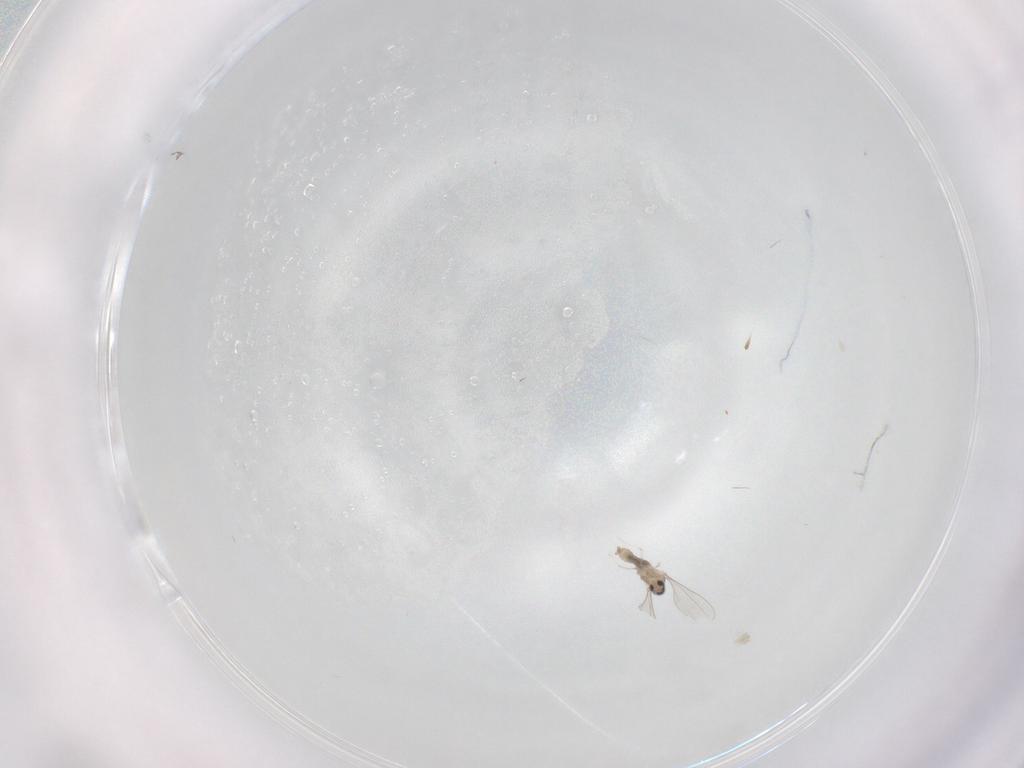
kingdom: Animalia
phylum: Arthropoda
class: Insecta
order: Diptera
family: Cecidomyiidae
